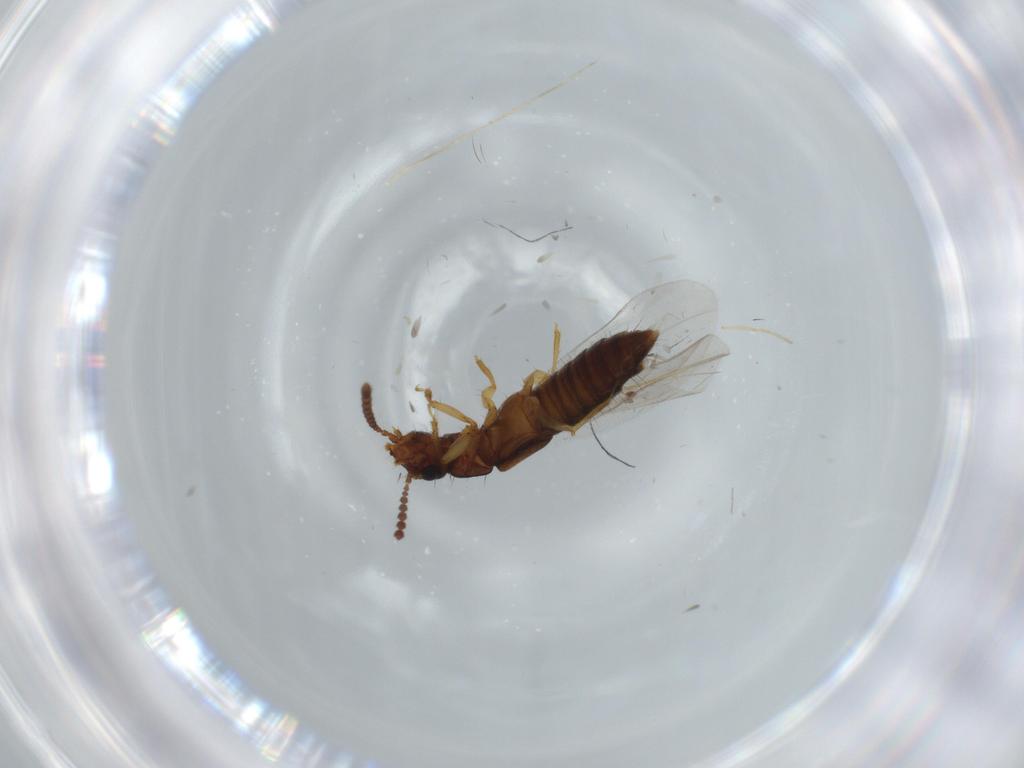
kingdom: Animalia
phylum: Arthropoda
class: Insecta
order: Coleoptera
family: Staphylinidae
